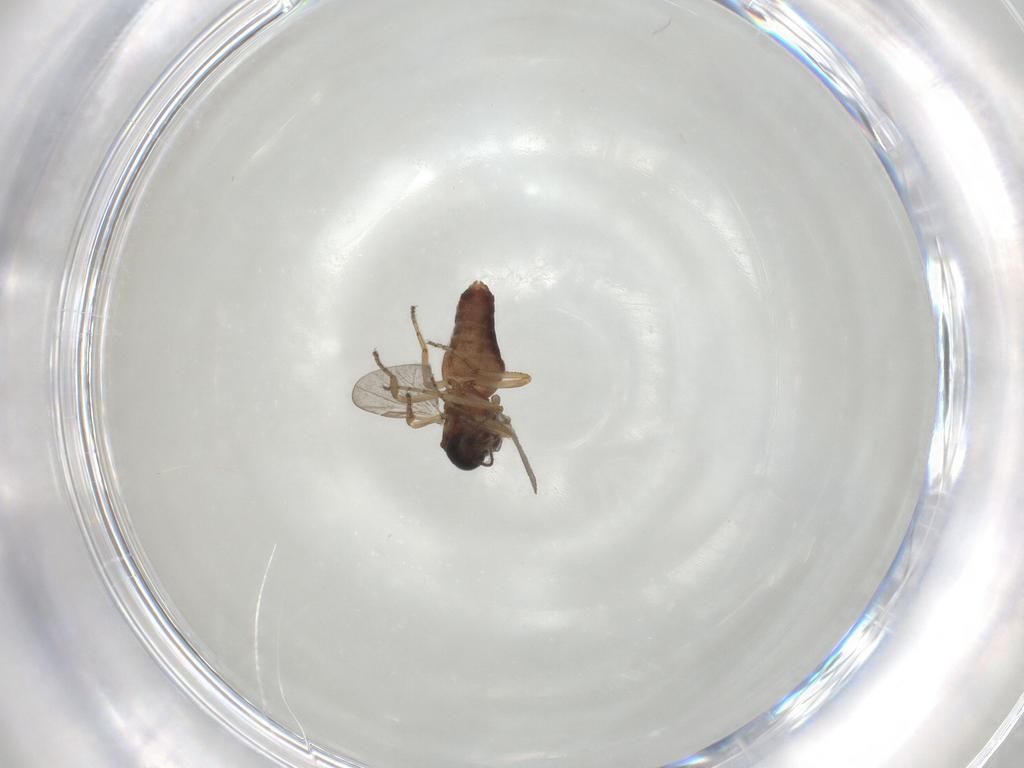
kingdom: Animalia
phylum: Arthropoda
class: Insecta
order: Diptera
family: Ceratopogonidae
